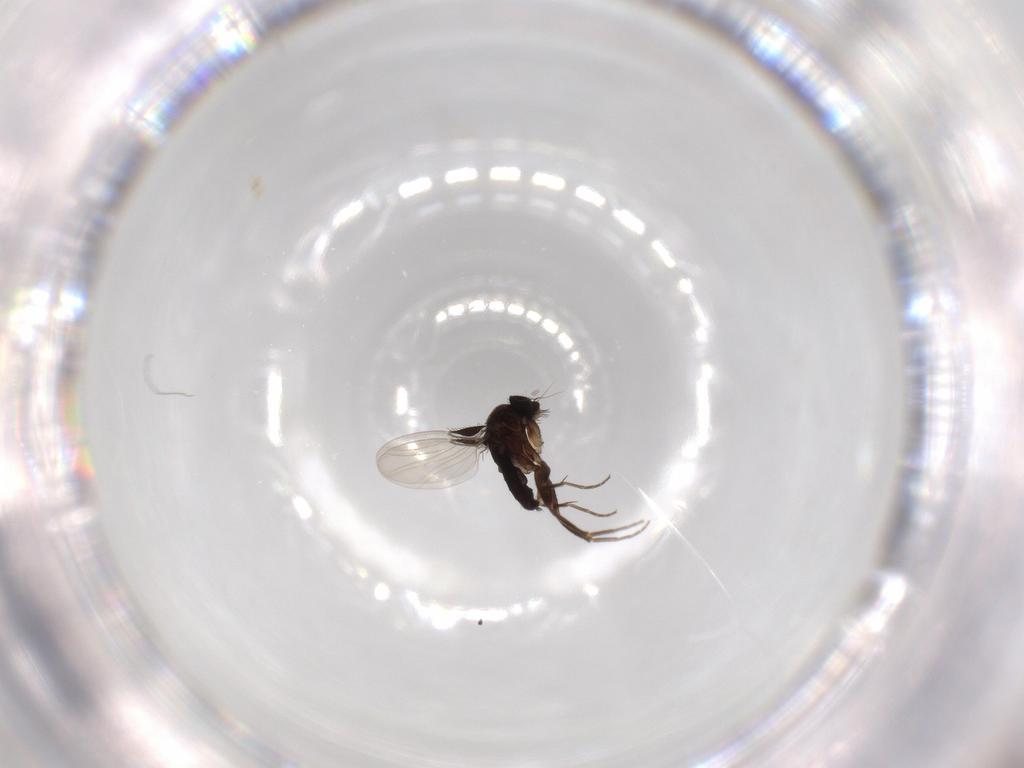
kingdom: Animalia
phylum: Arthropoda
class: Insecta
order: Diptera
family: Phoridae
